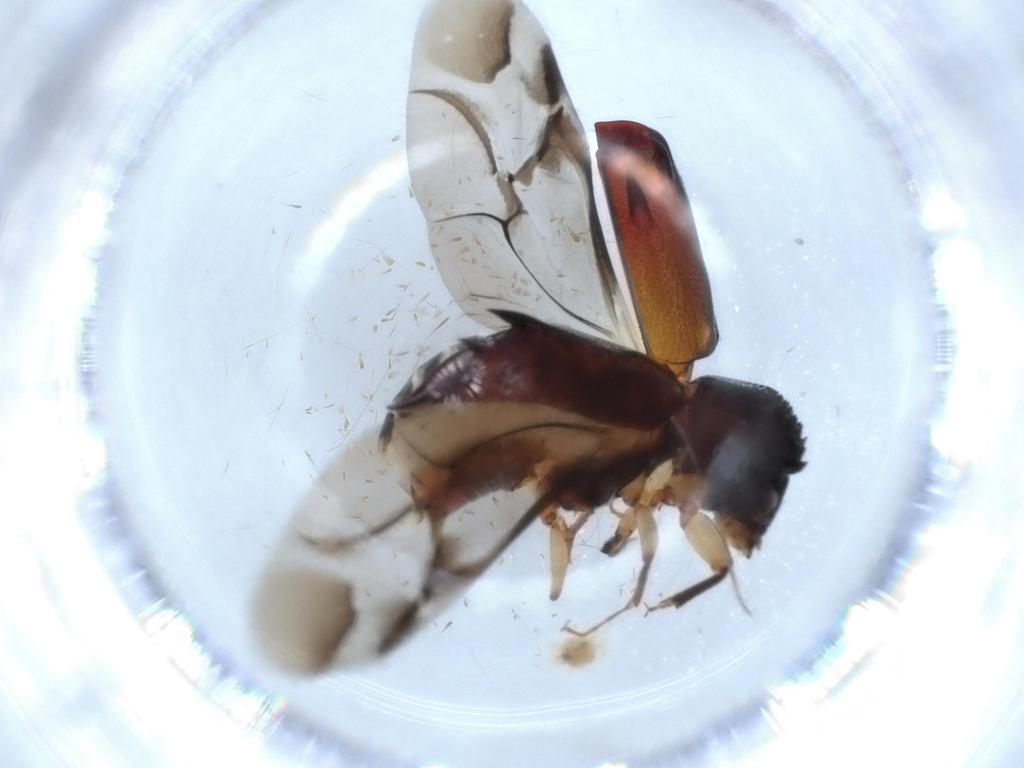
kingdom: Animalia
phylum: Arthropoda
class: Insecta
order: Coleoptera
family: Bostrichidae
